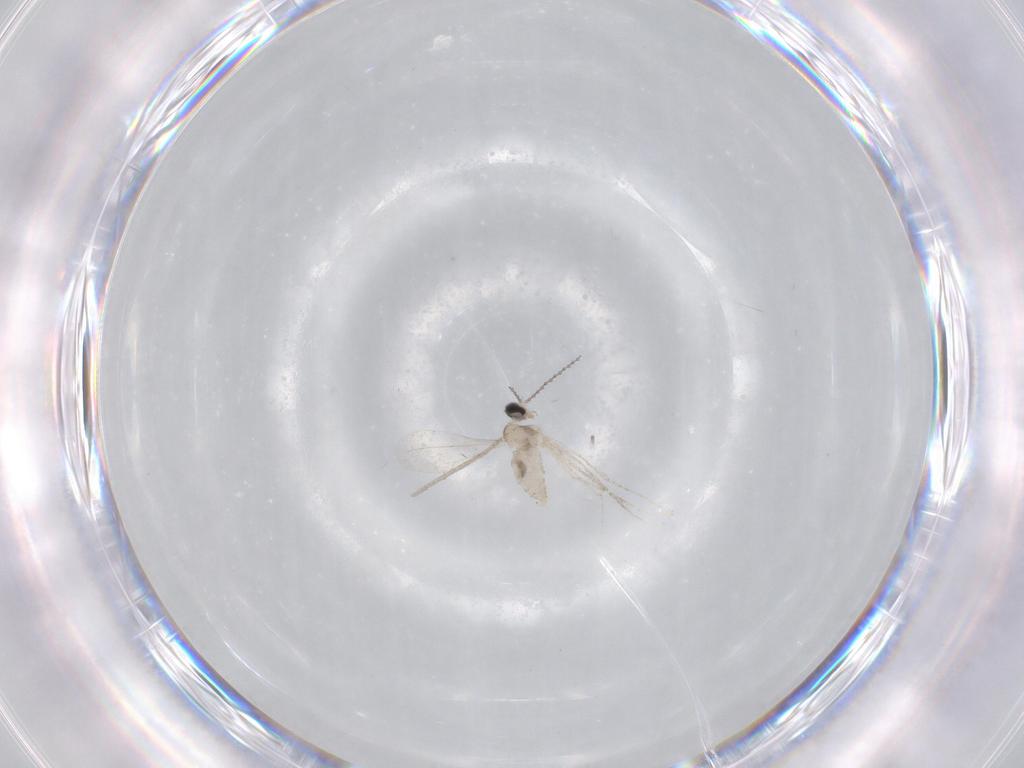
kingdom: Animalia
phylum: Arthropoda
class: Insecta
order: Diptera
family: Cecidomyiidae
